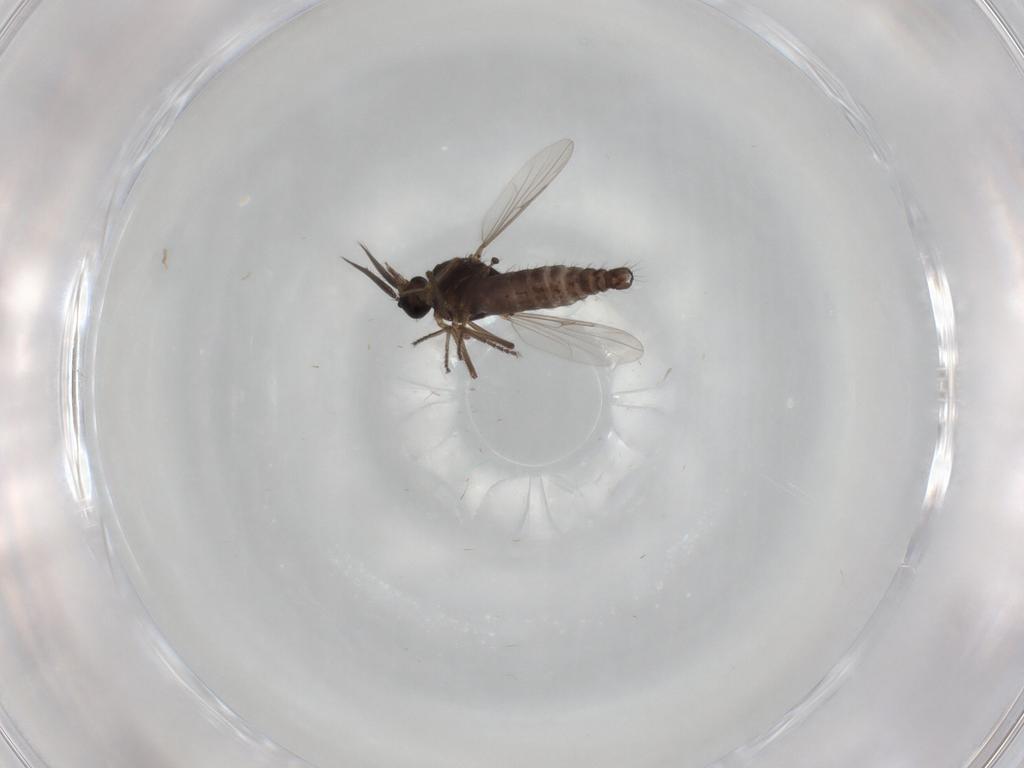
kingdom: Animalia
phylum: Arthropoda
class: Insecta
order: Diptera
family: Ceratopogonidae
